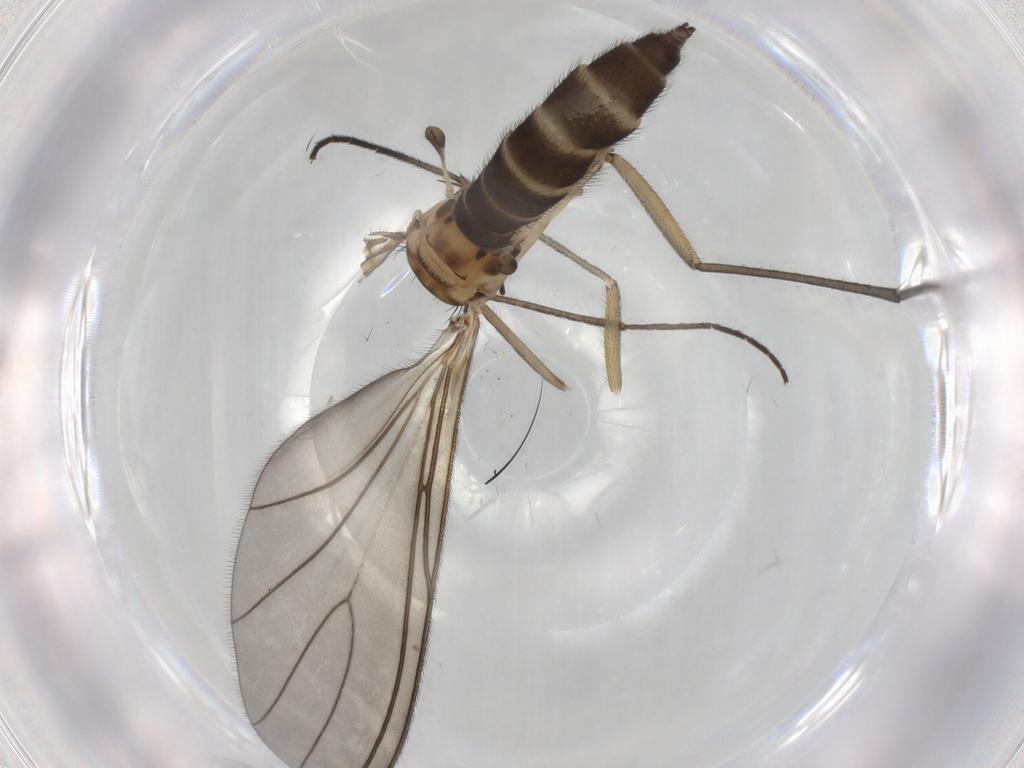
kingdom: Animalia
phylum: Arthropoda
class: Insecta
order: Diptera
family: Sciaridae
